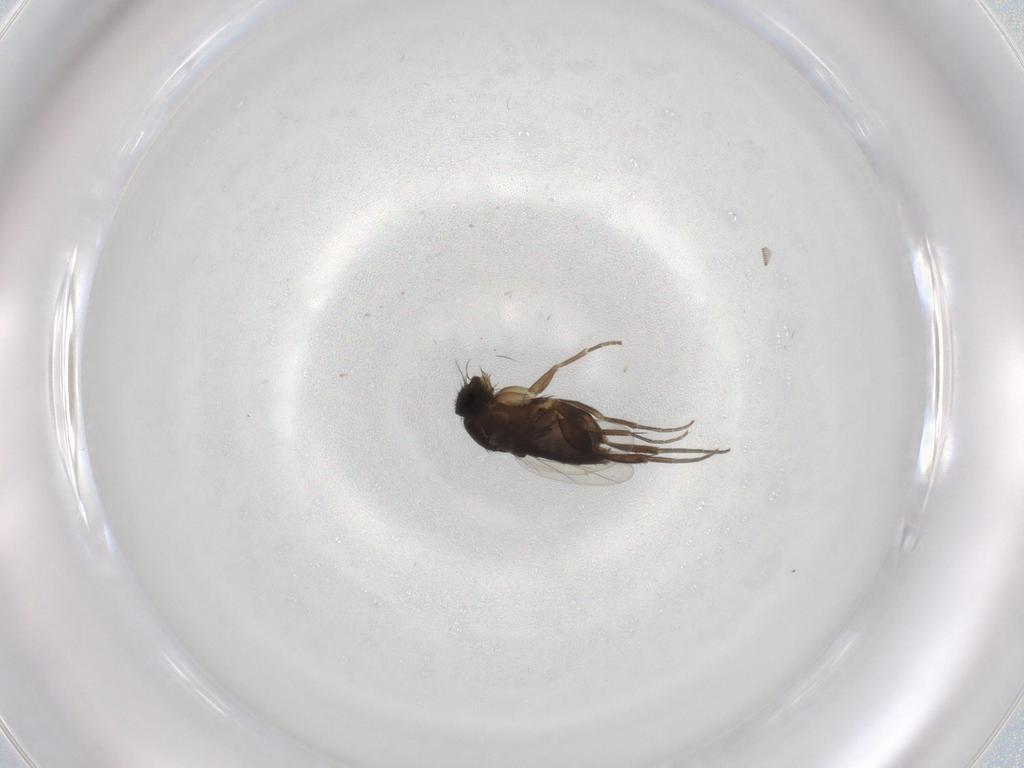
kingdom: Animalia
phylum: Arthropoda
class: Insecta
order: Diptera
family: Phoridae
